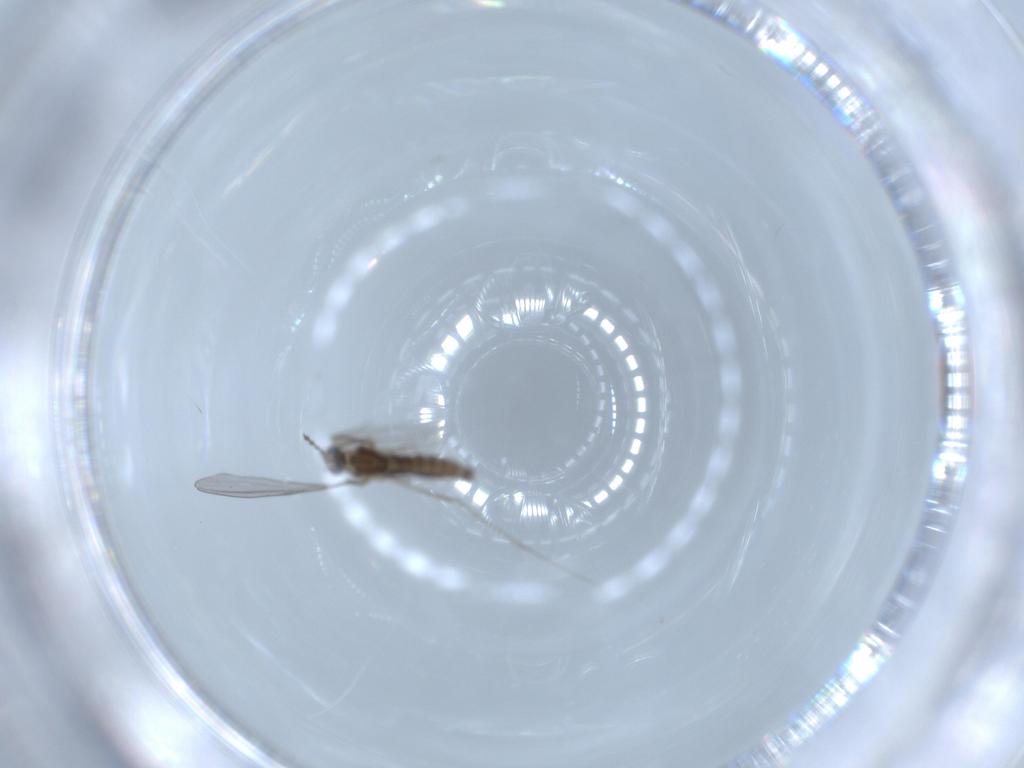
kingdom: Animalia
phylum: Arthropoda
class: Insecta
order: Diptera
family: Cecidomyiidae
